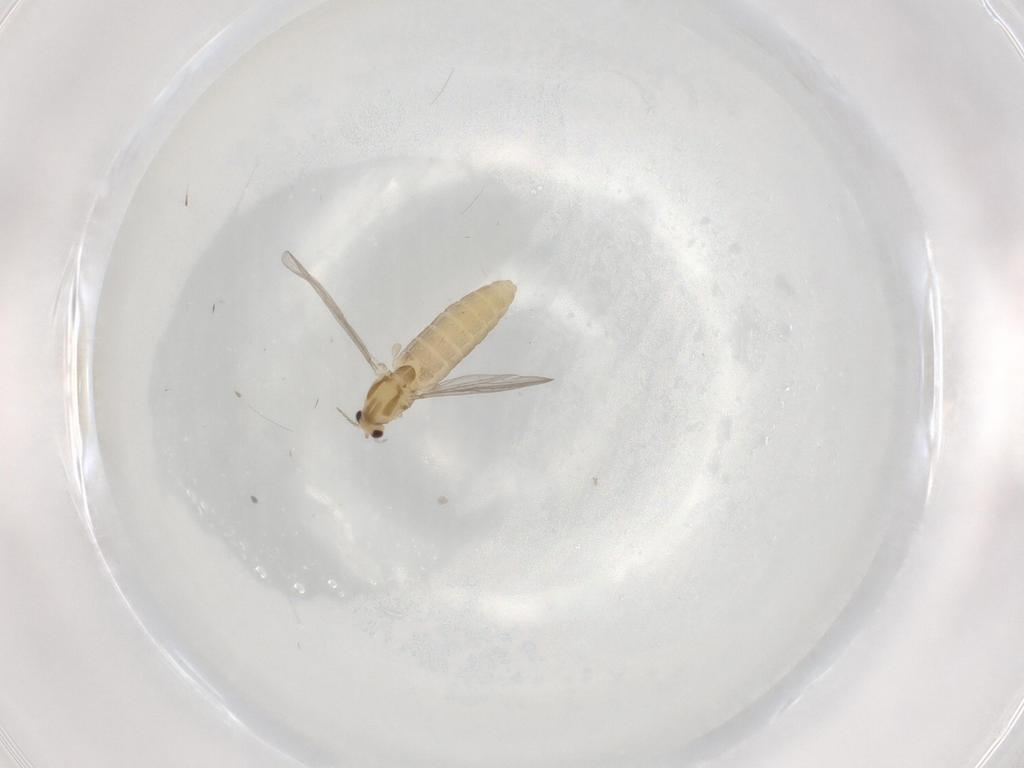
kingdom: Animalia
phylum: Arthropoda
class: Insecta
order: Diptera
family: Chironomidae
